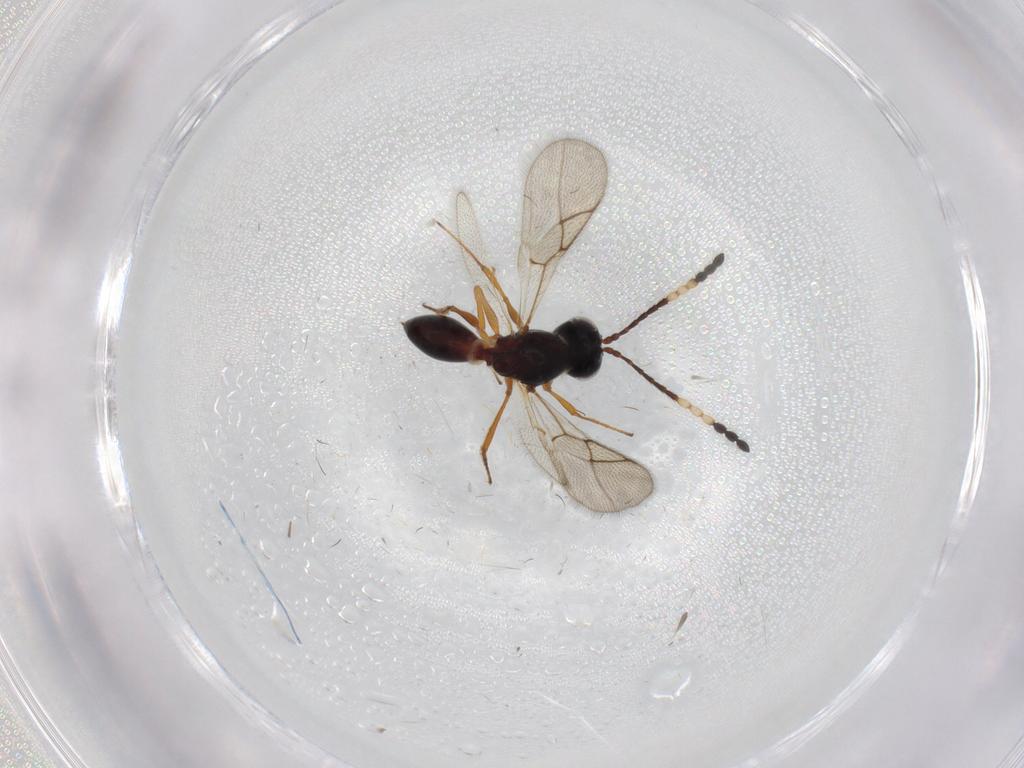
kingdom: Animalia
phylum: Arthropoda
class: Insecta
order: Hymenoptera
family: Figitidae
